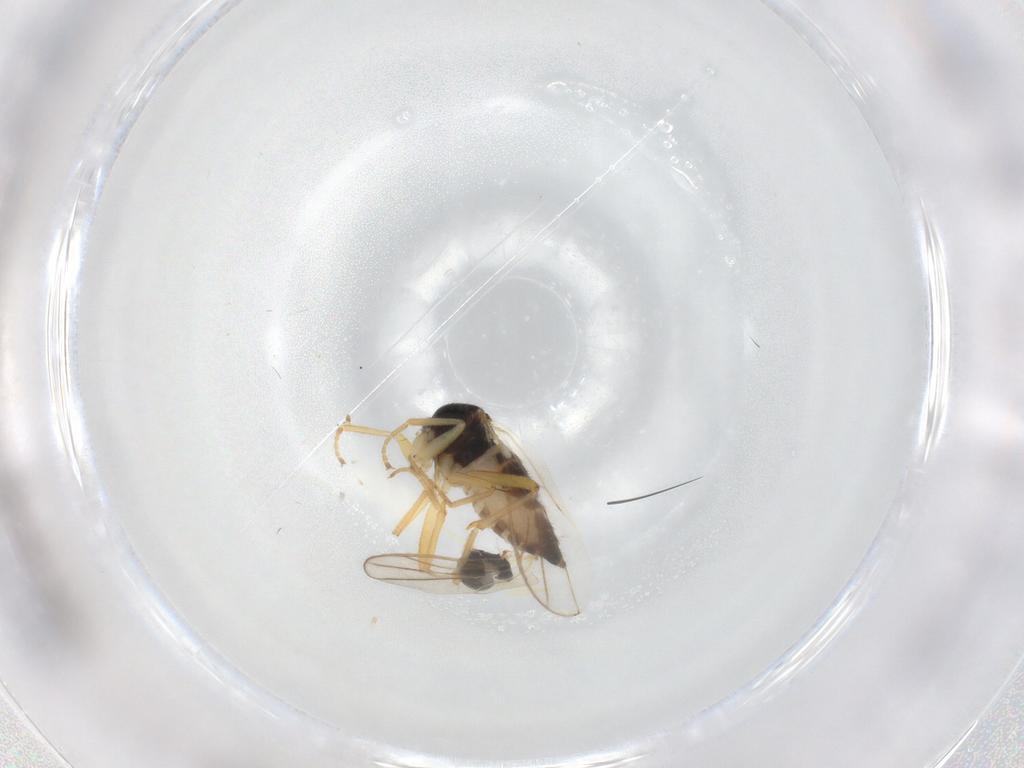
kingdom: Animalia
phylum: Arthropoda
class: Insecta
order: Diptera
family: Hybotidae
